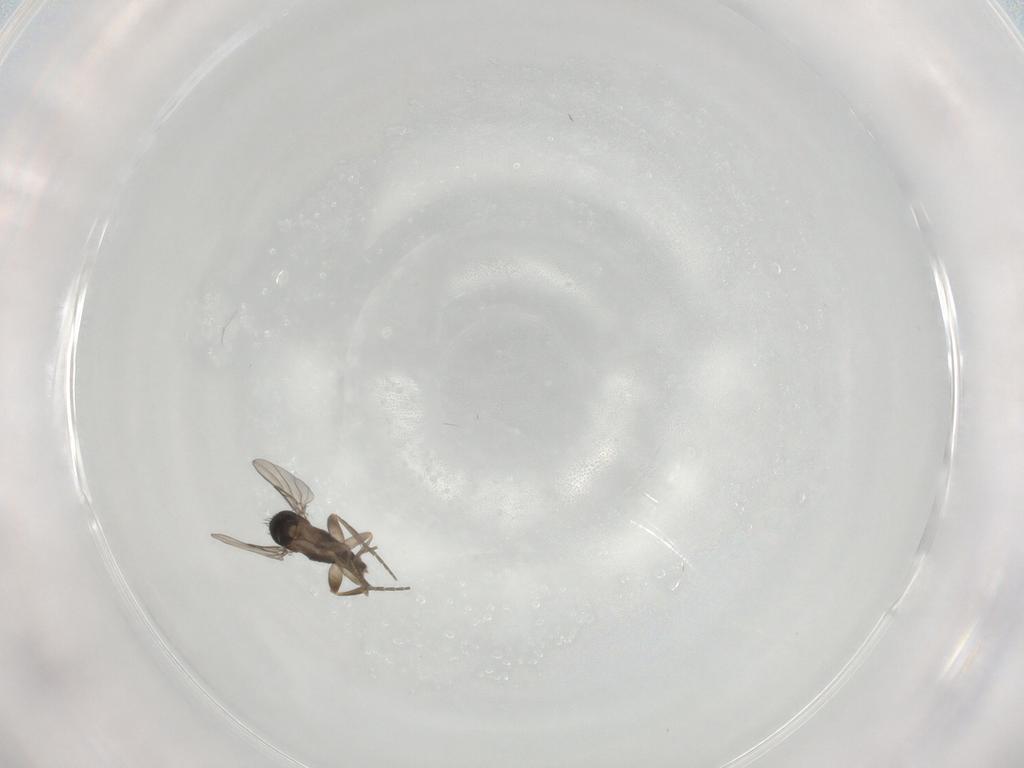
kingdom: Animalia
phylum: Arthropoda
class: Insecta
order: Diptera
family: Phoridae
